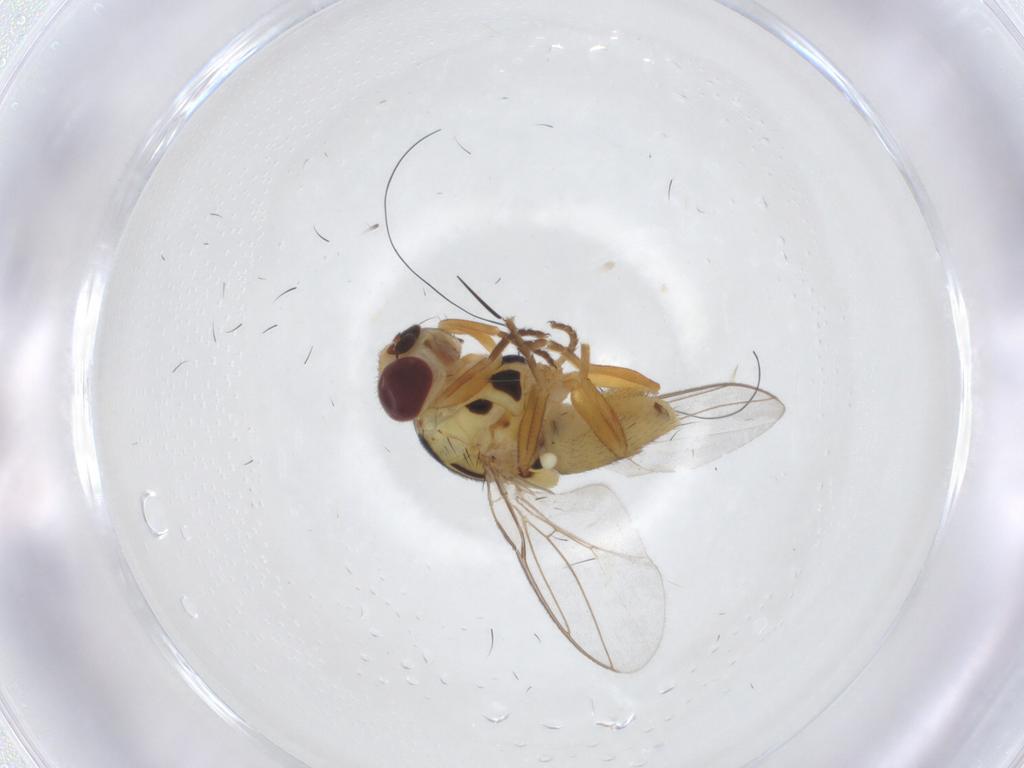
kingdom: Animalia
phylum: Arthropoda
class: Insecta
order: Diptera
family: Chloropidae
